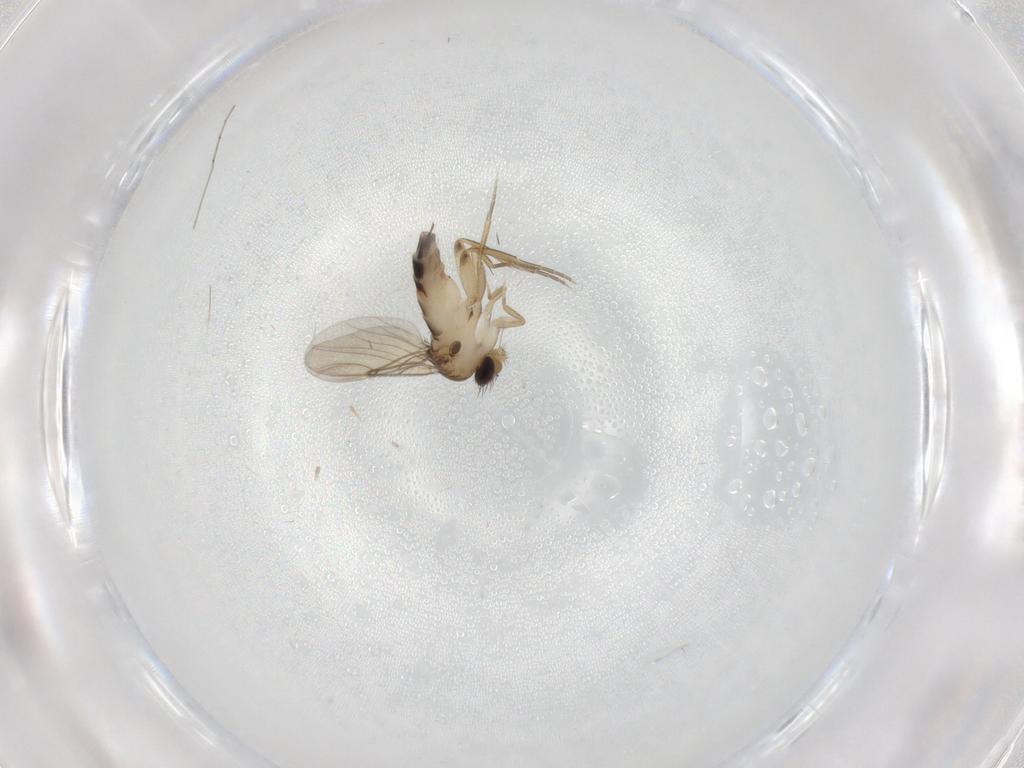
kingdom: Animalia
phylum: Arthropoda
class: Insecta
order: Diptera
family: Phoridae
